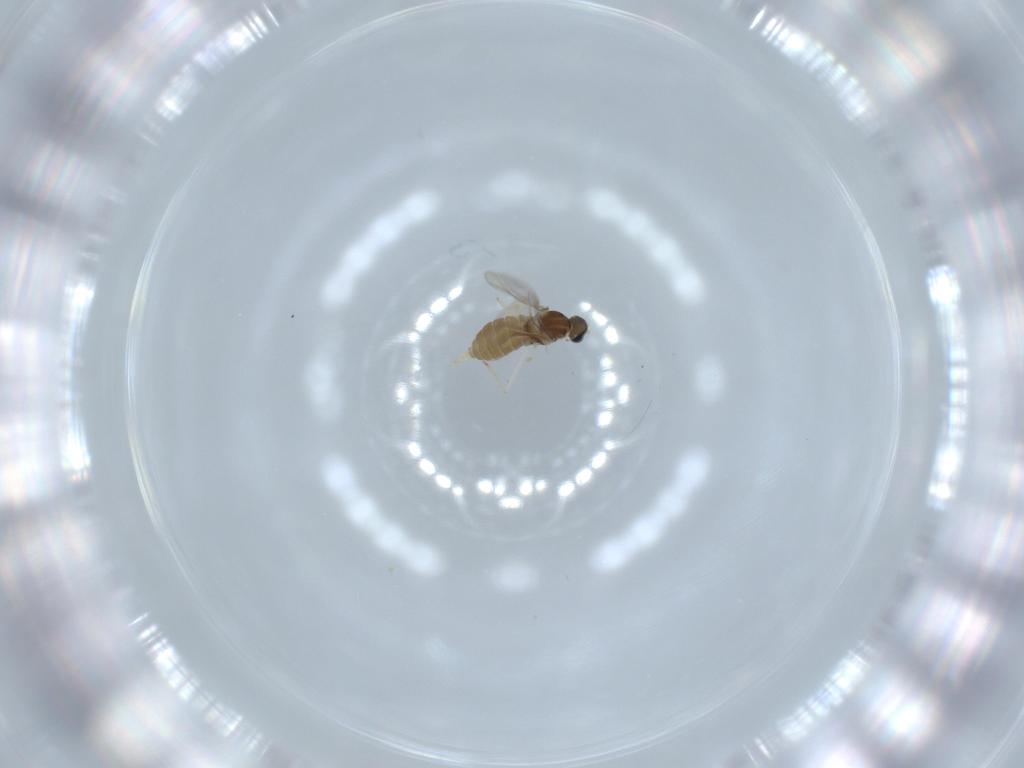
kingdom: Animalia
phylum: Arthropoda
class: Insecta
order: Diptera
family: Cecidomyiidae
